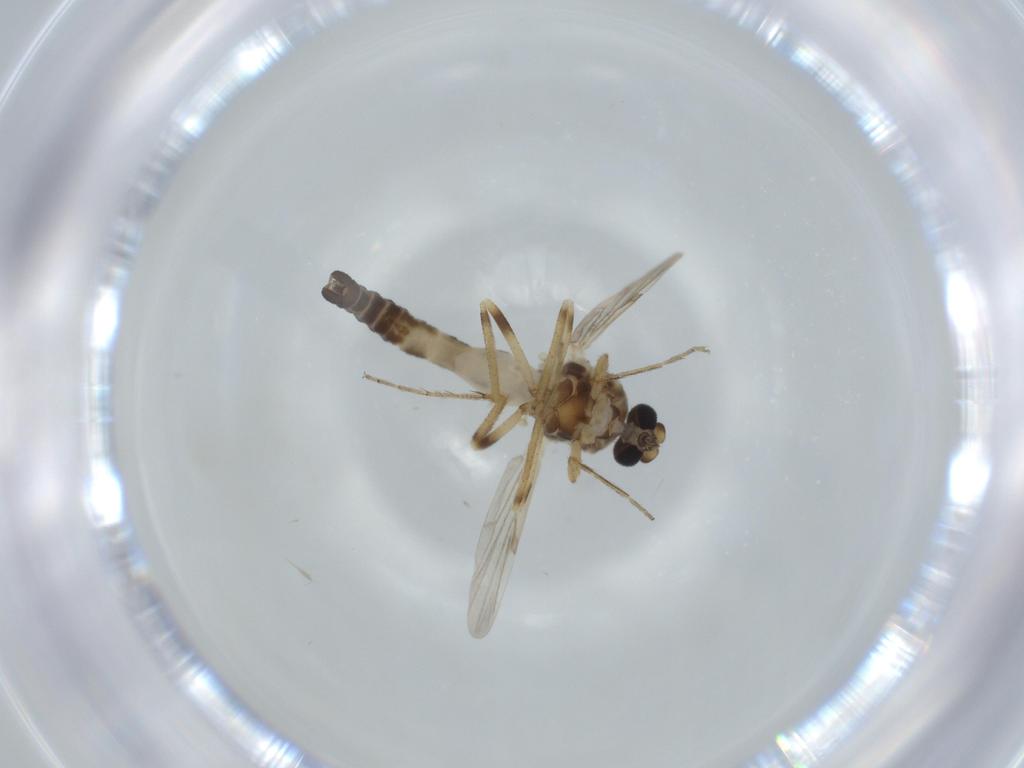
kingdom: Animalia
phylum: Arthropoda
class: Insecta
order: Diptera
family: Ceratopogonidae
